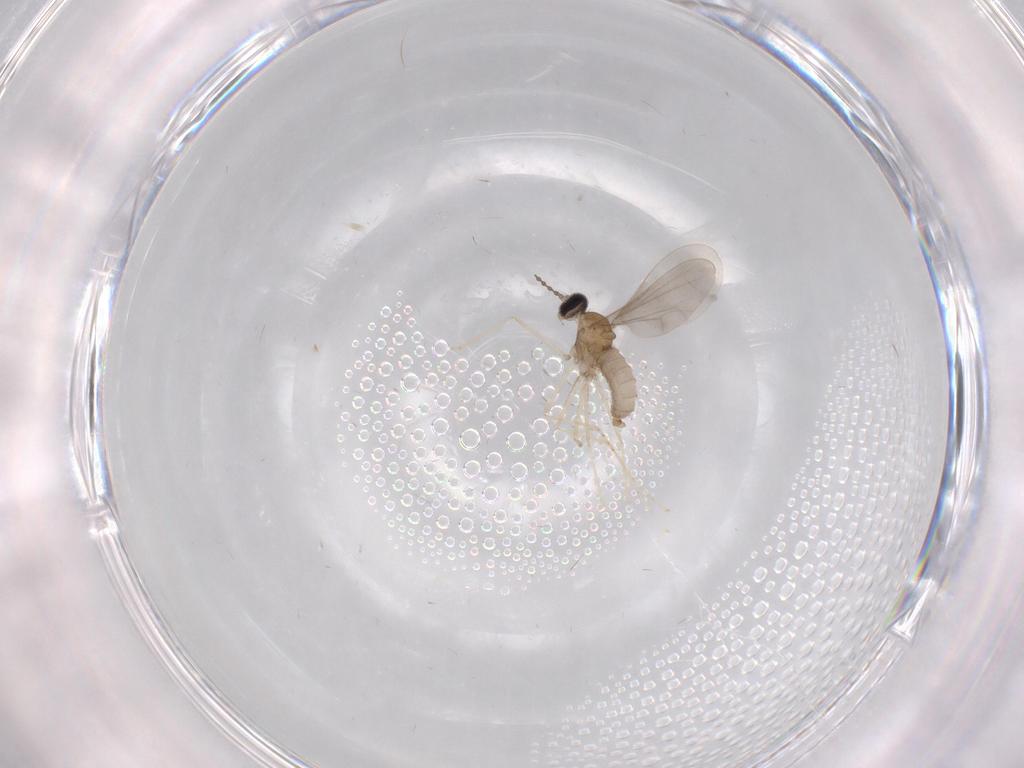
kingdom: Animalia
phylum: Arthropoda
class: Insecta
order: Diptera
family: Cecidomyiidae
